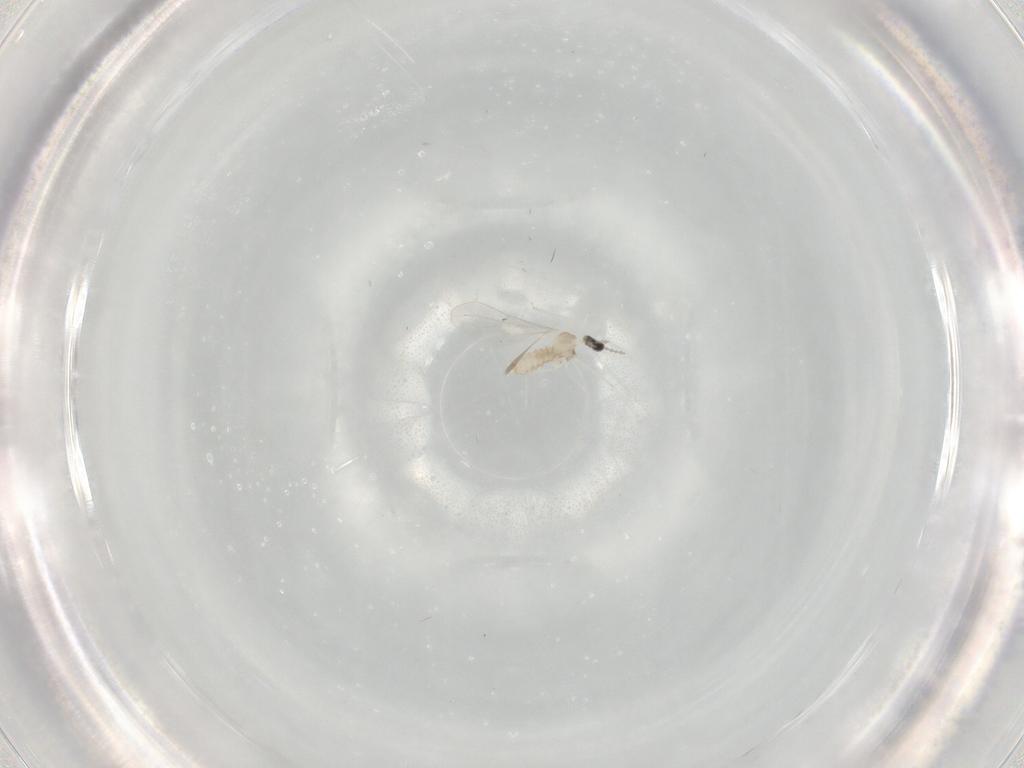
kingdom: Animalia
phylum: Arthropoda
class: Insecta
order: Diptera
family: Cecidomyiidae
